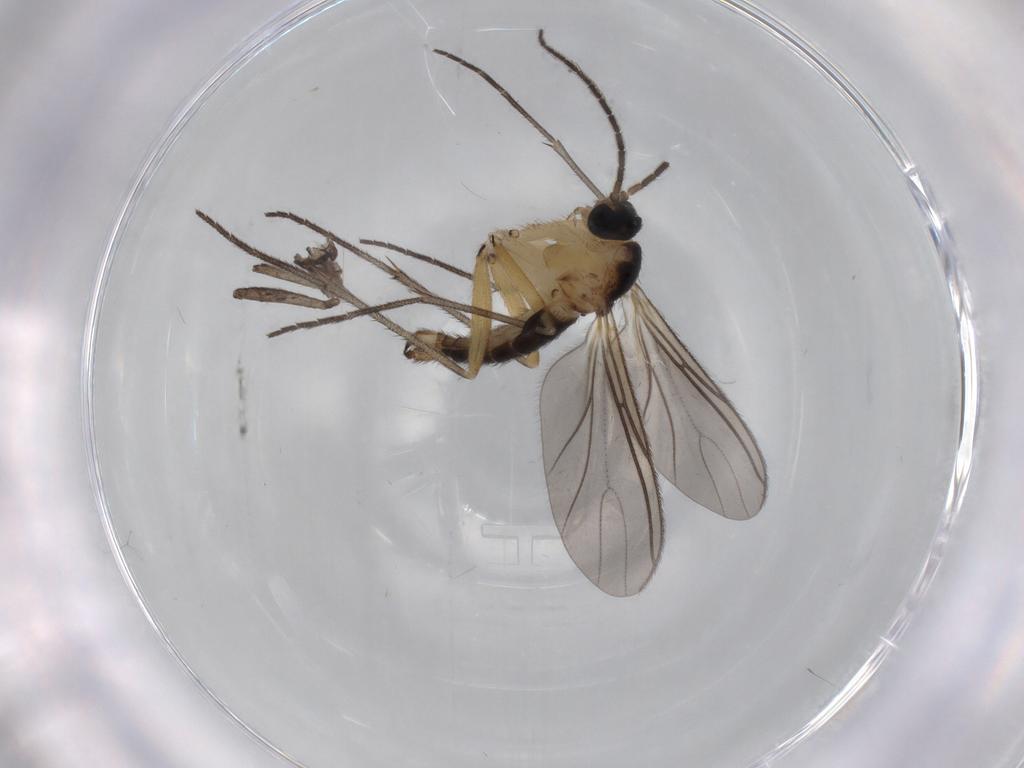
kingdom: Animalia
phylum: Arthropoda
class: Insecta
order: Diptera
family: Sciaridae
